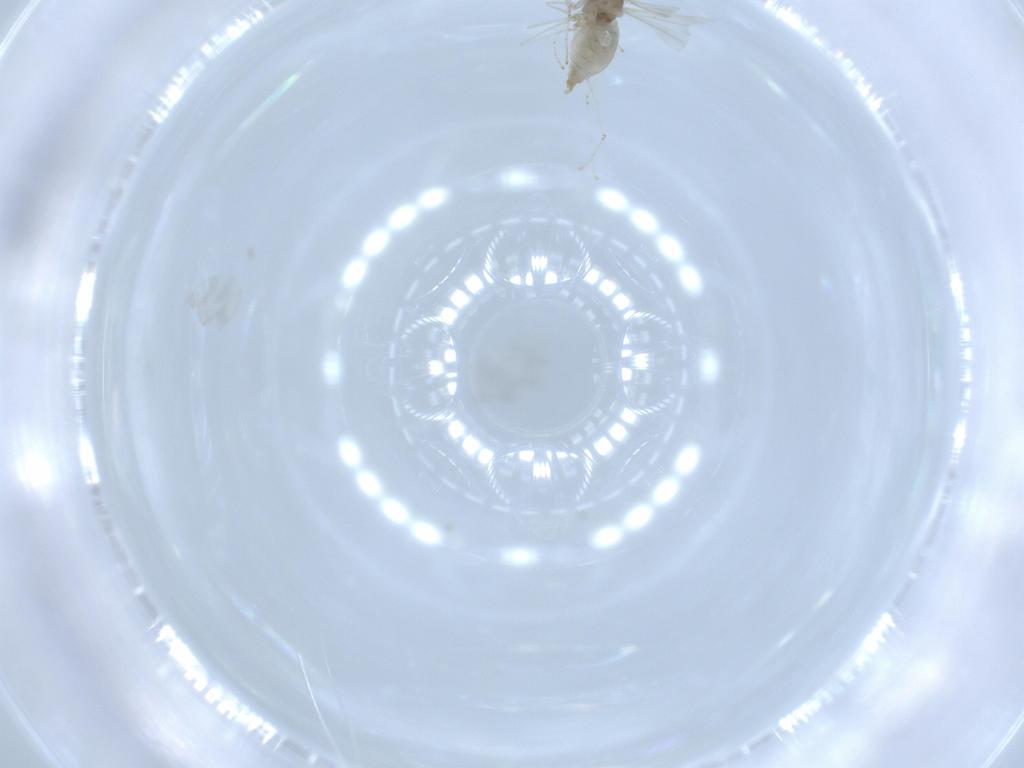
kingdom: Animalia
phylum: Arthropoda
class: Insecta
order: Diptera
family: Cecidomyiidae
